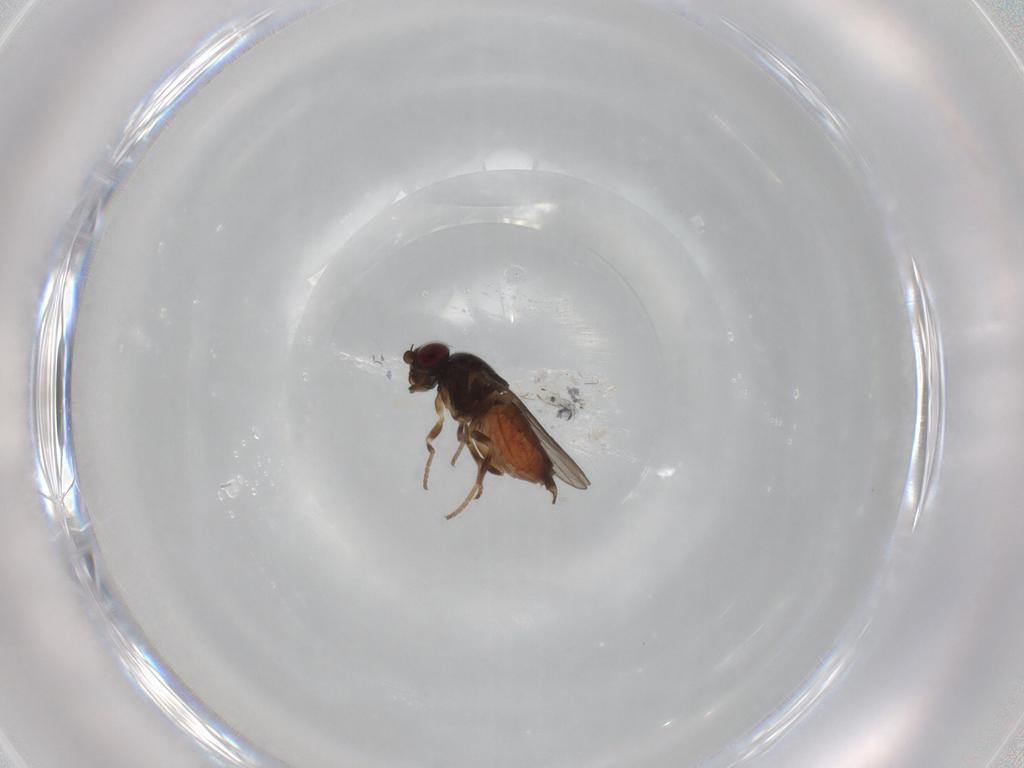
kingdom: Animalia
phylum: Arthropoda
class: Insecta
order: Diptera
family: Chloropidae
